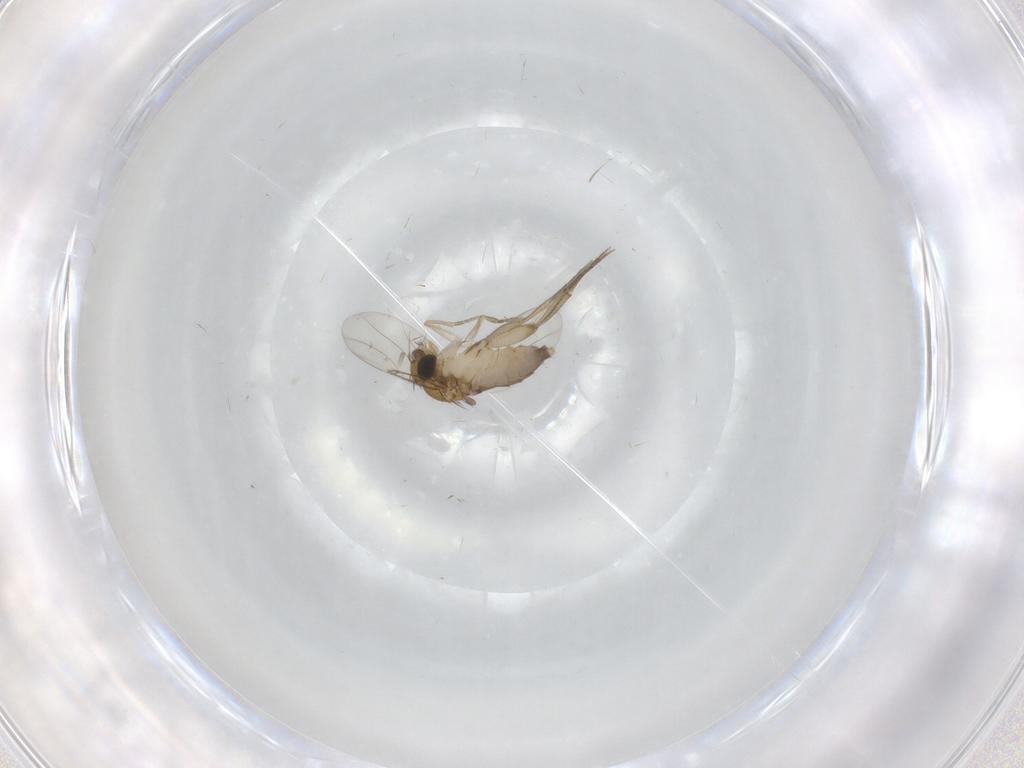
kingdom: Animalia
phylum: Arthropoda
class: Insecta
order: Diptera
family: Phoridae
